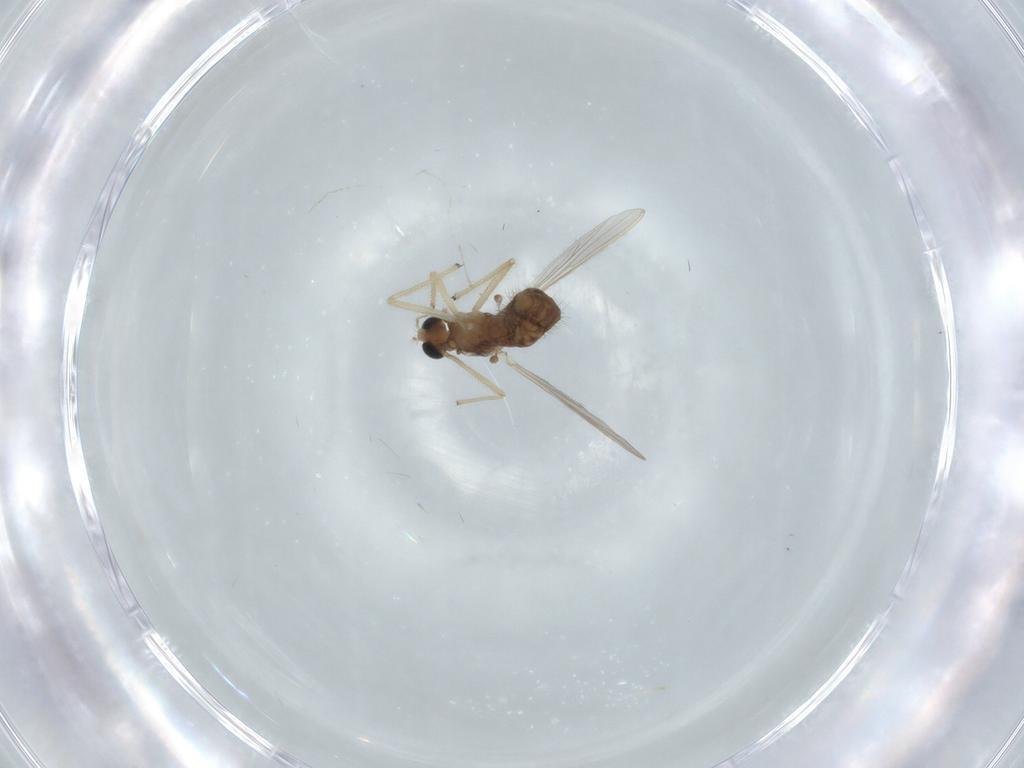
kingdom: Animalia
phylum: Arthropoda
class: Insecta
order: Diptera
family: Chironomidae
